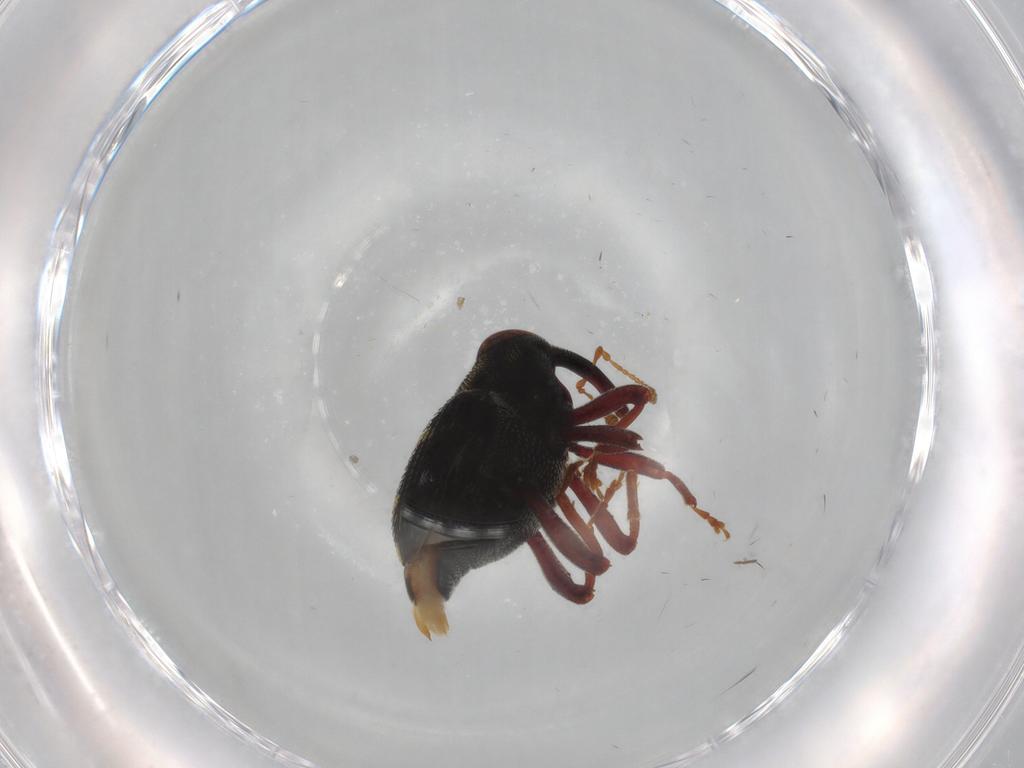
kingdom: Animalia
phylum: Arthropoda
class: Insecta
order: Coleoptera
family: Curculionidae
